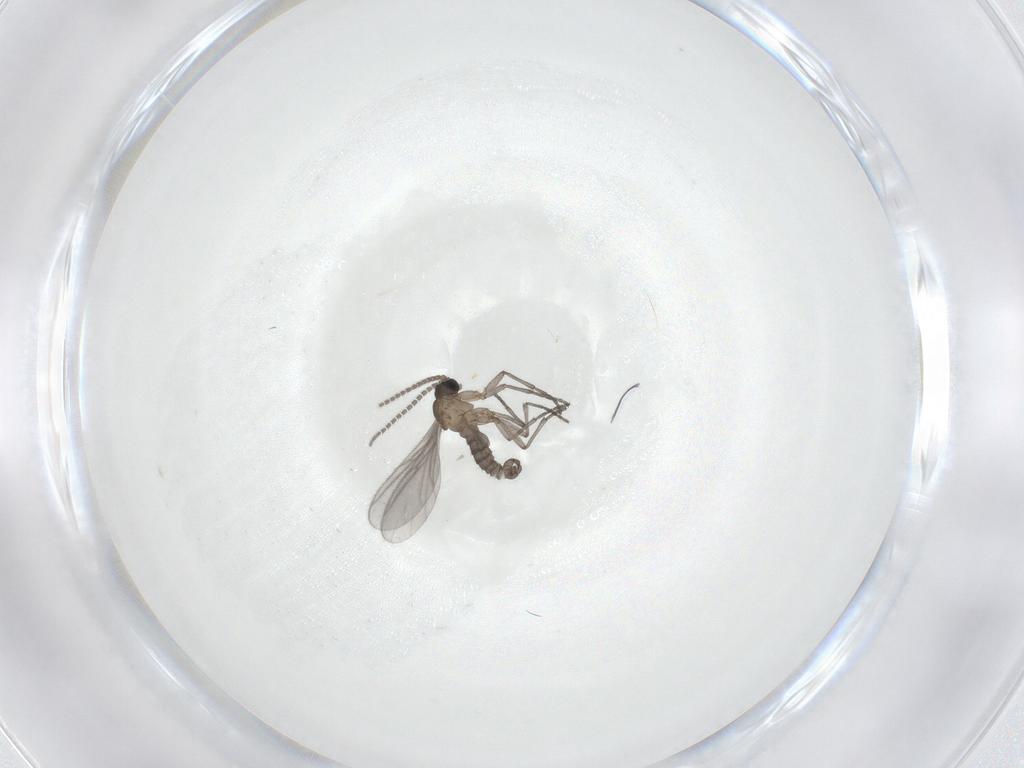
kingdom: Animalia
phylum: Arthropoda
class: Insecta
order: Diptera
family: Sciaridae
